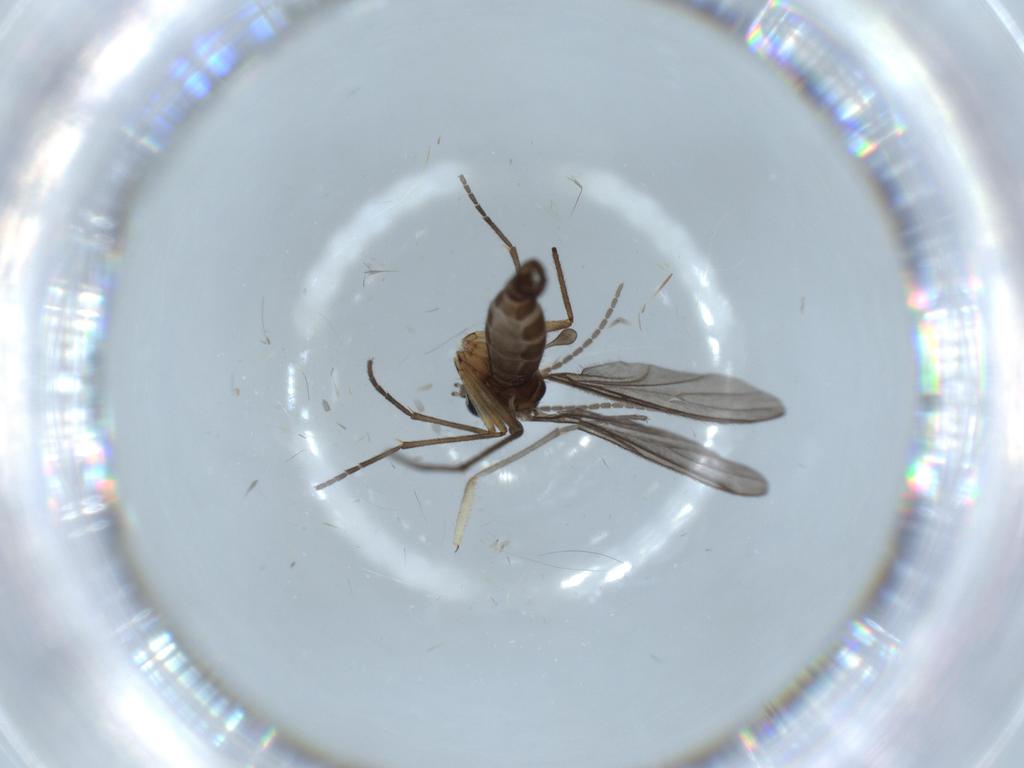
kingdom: Animalia
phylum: Arthropoda
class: Insecta
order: Diptera
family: Sciaridae
